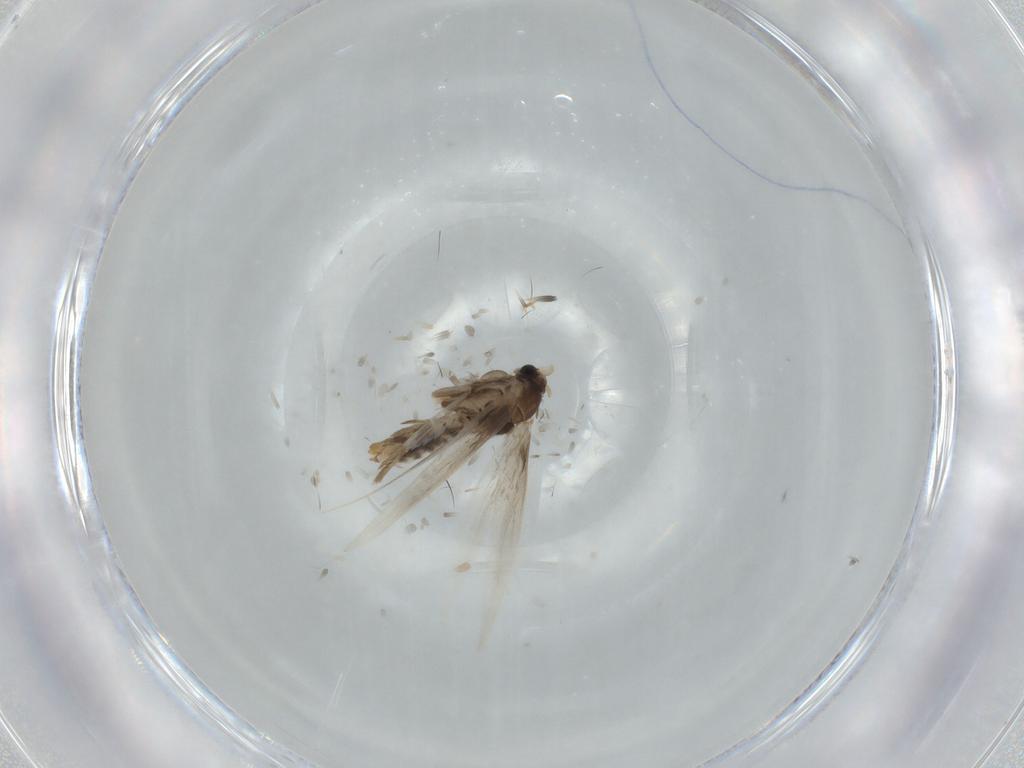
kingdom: Animalia
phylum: Arthropoda
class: Insecta
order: Lepidoptera
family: Nepticulidae
